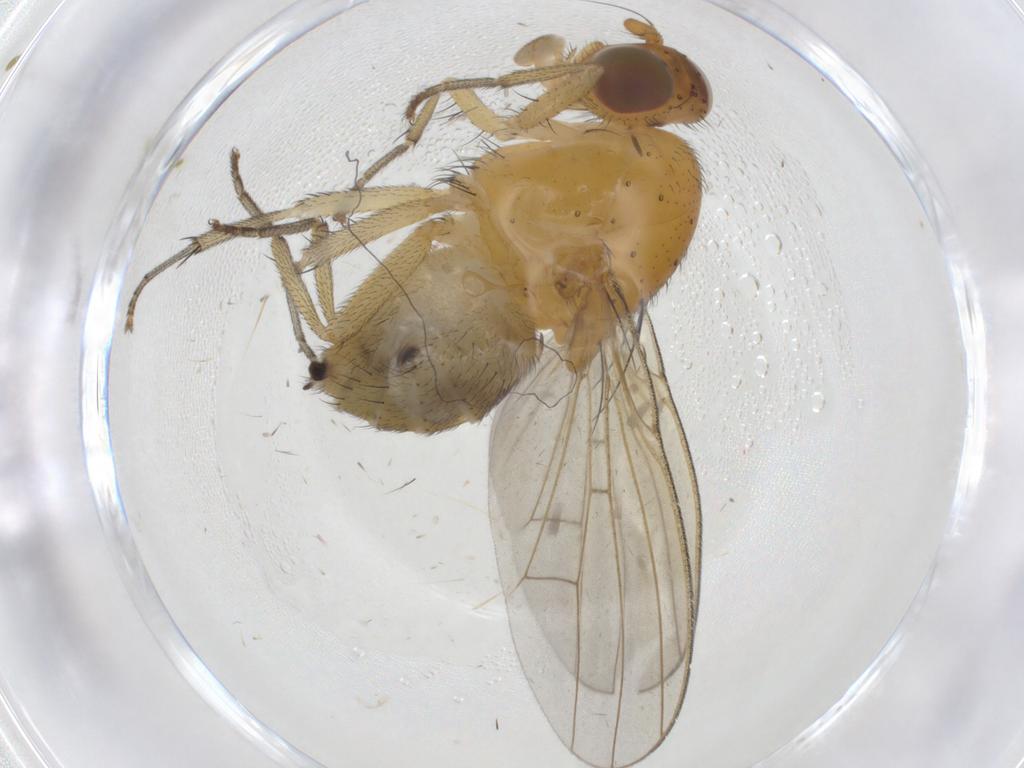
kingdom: Animalia
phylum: Arthropoda
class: Insecta
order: Diptera
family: Lauxaniidae
